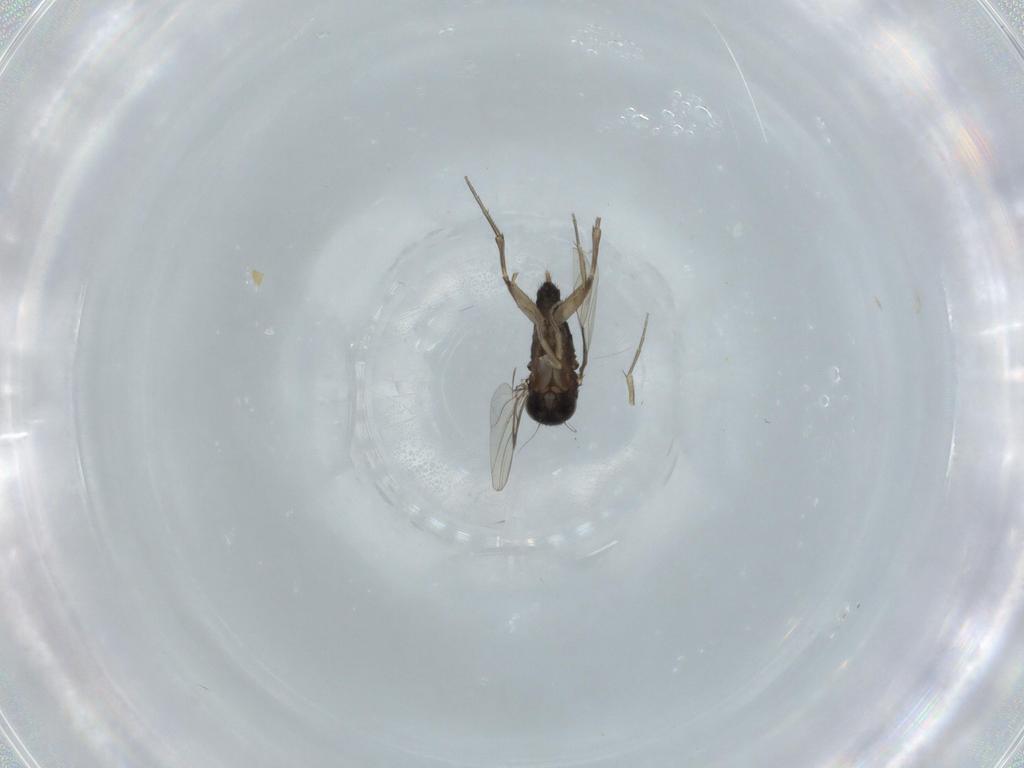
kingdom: Animalia
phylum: Arthropoda
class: Insecta
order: Diptera
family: Phoridae
